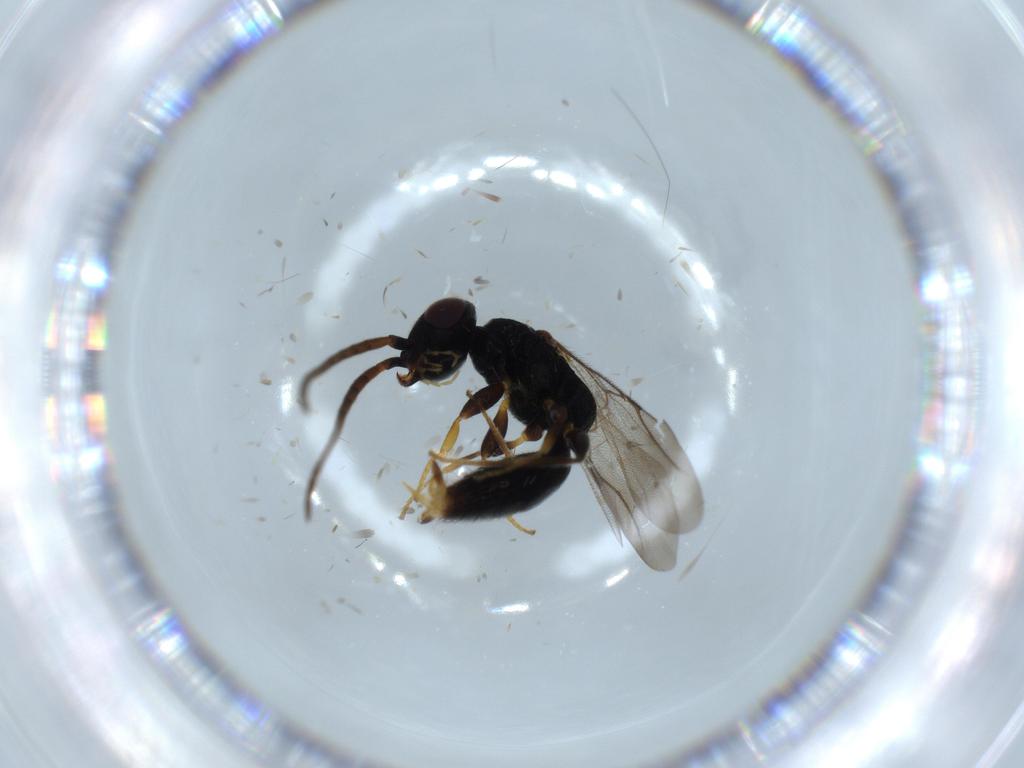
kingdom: Animalia
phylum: Arthropoda
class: Insecta
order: Hymenoptera
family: Bethylidae
